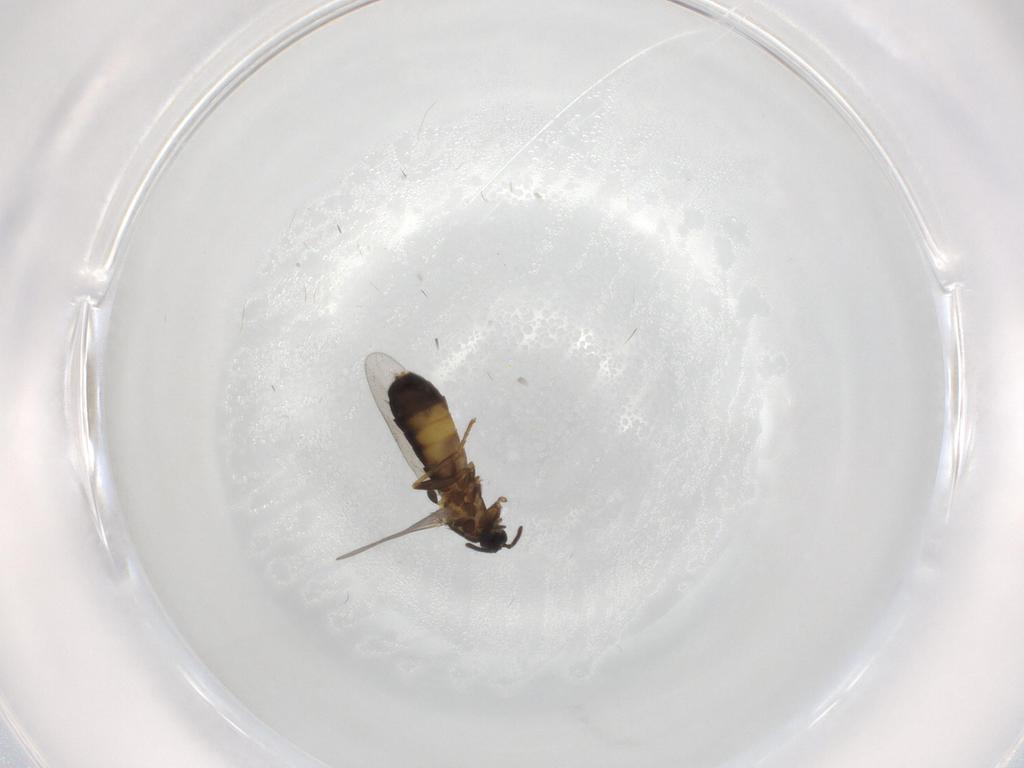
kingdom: Animalia
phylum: Arthropoda
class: Insecta
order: Diptera
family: Scatopsidae
